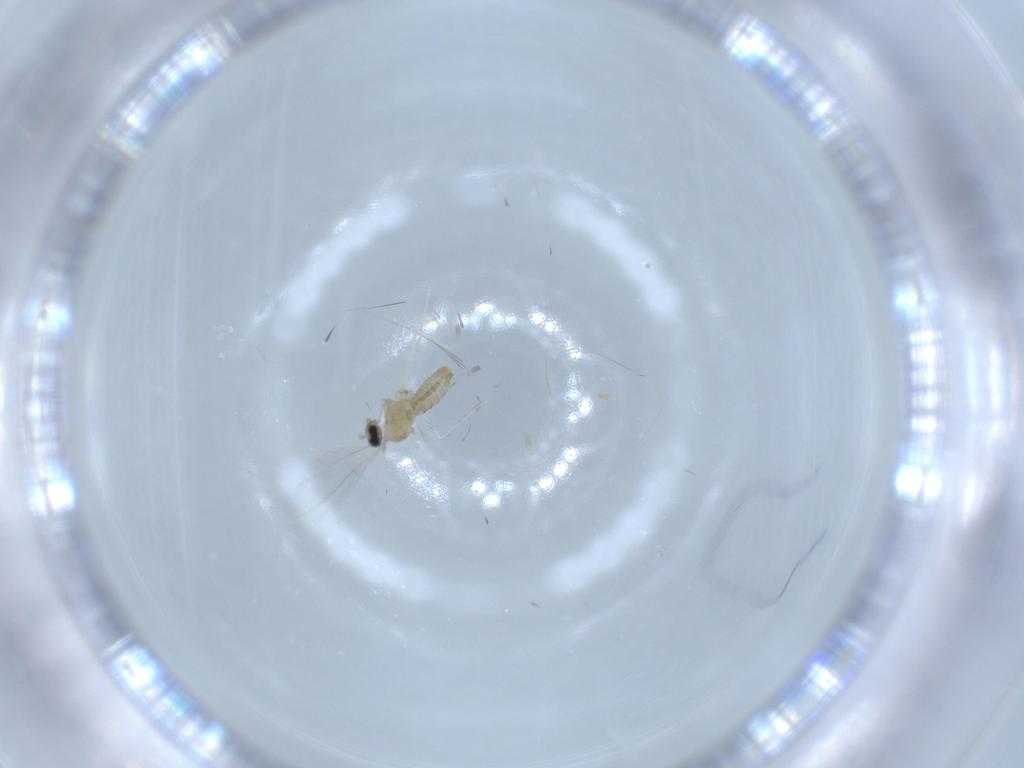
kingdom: Animalia
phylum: Arthropoda
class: Insecta
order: Diptera
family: Cecidomyiidae
